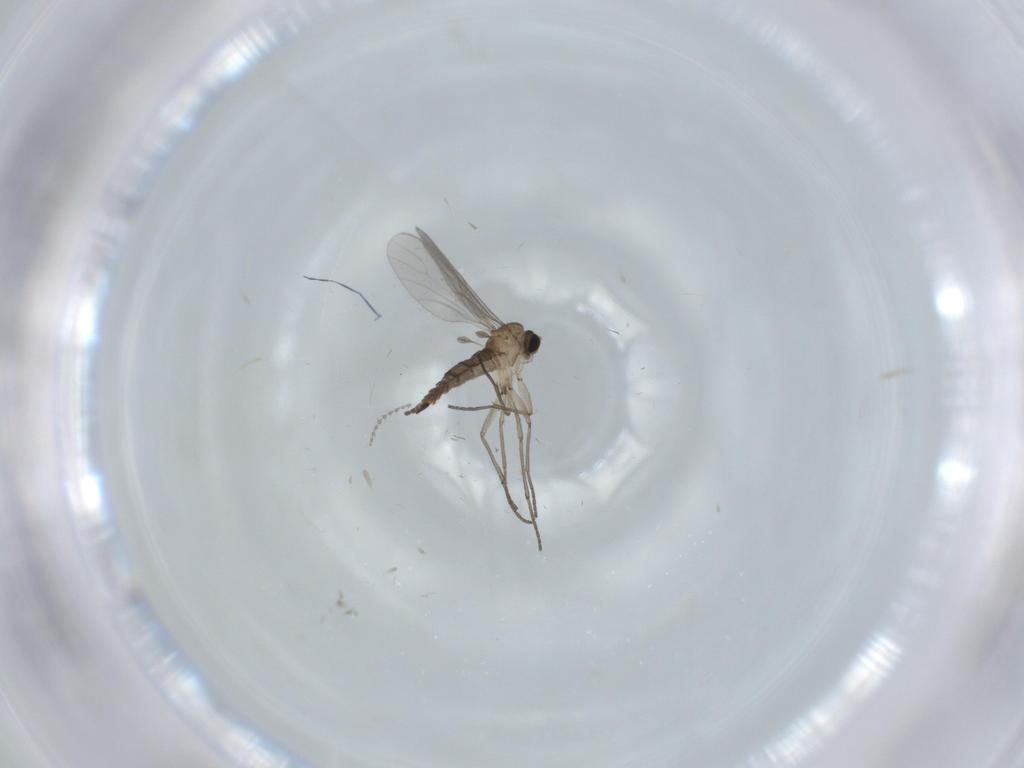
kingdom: Animalia
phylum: Arthropoda
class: Insecta
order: Diptera
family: Sciaridae
